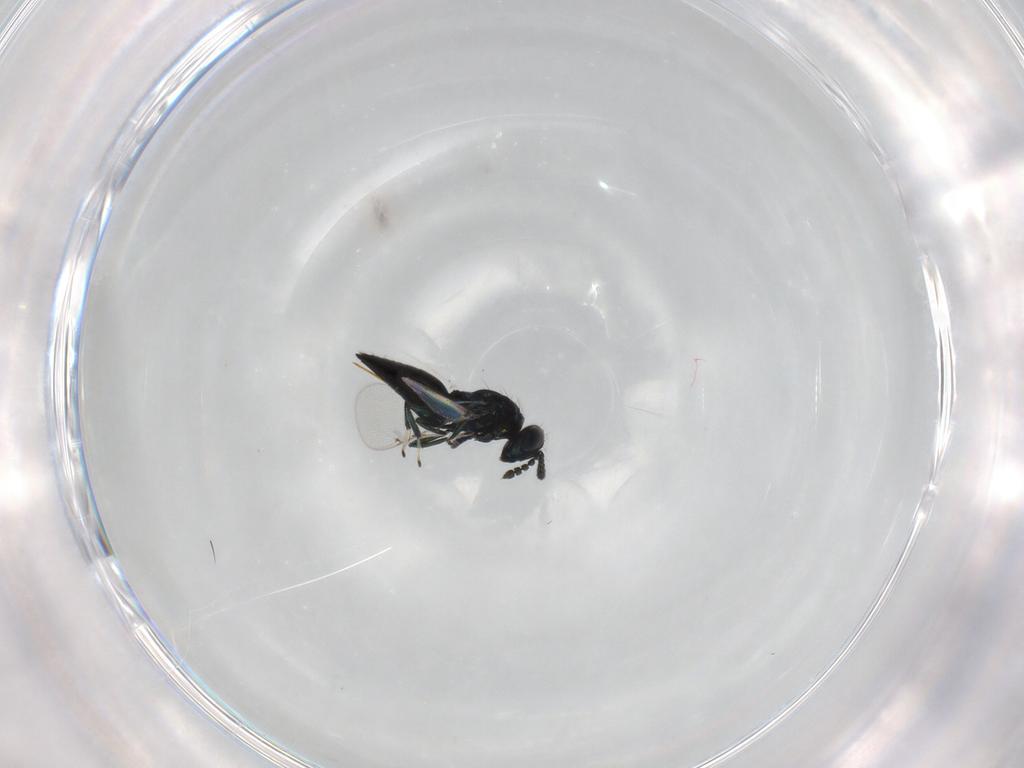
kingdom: Animalia
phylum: Arthropoda
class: Insecta
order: Hymenoptera
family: Eulophidae
